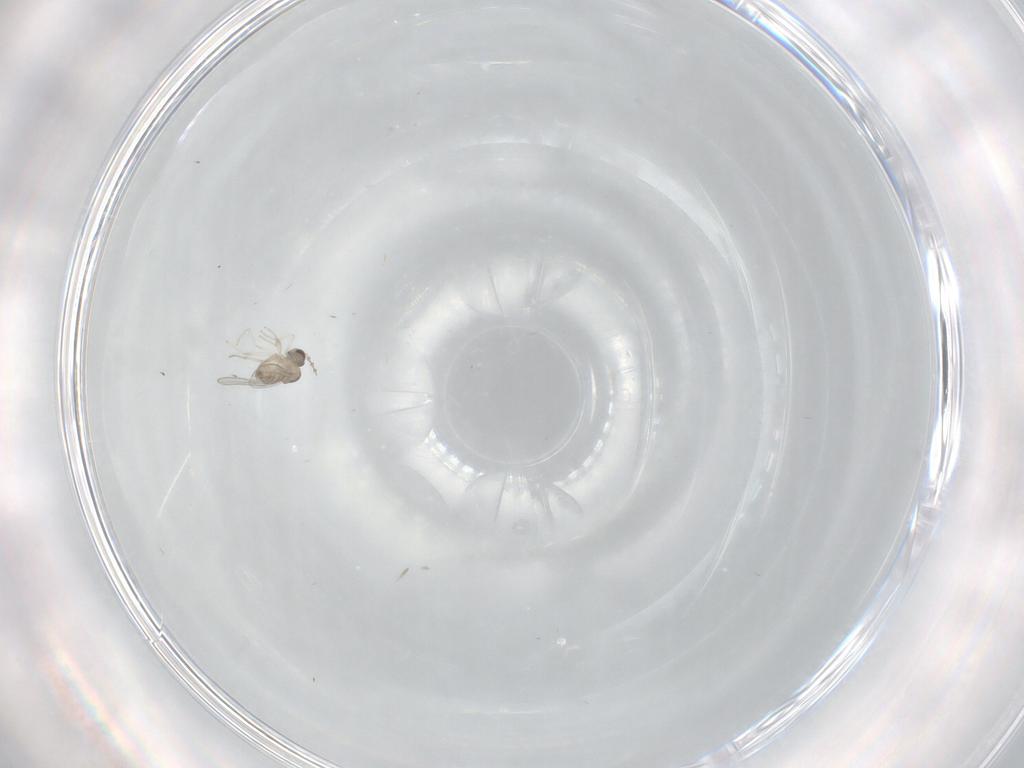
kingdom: Animalia
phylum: Arthropoda
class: Insecta
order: Diptera
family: Cecidomyiidae
